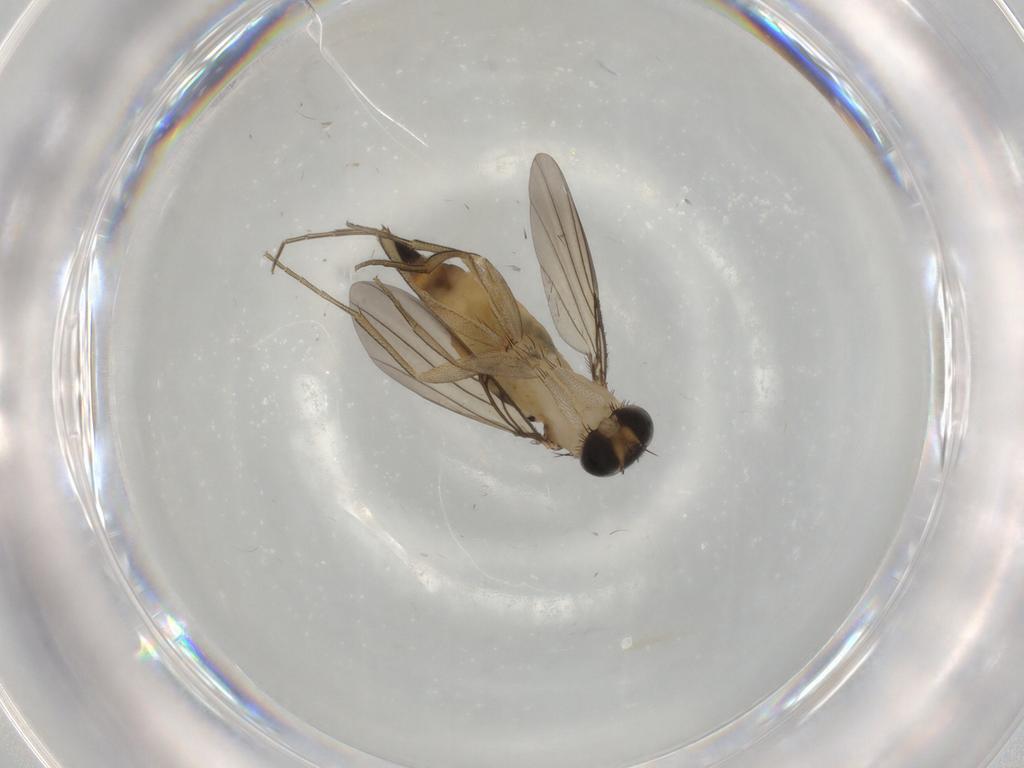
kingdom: Animalia
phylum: Arthropoda
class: Insecta
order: Diptera
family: Phoridae
